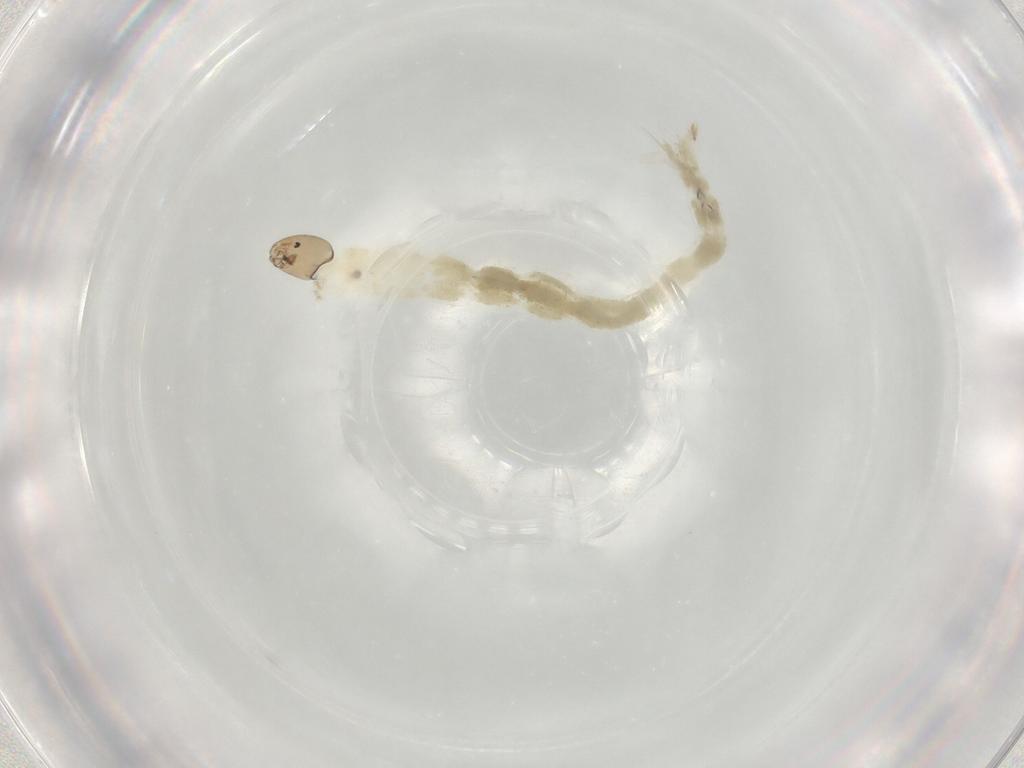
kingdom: Animalia
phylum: Arthropoda
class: Insecta
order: Diptera
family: Chironomidae
